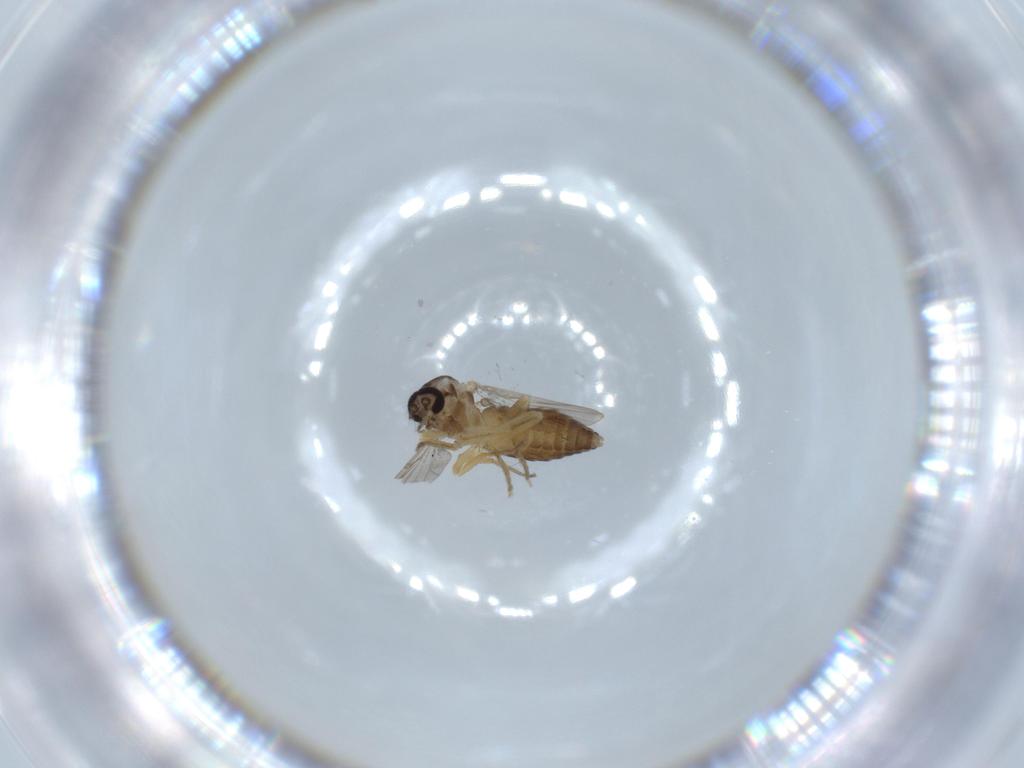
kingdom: Animalia
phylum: Arthropoda
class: Insecta
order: Diptera
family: Ceratopogonidae
